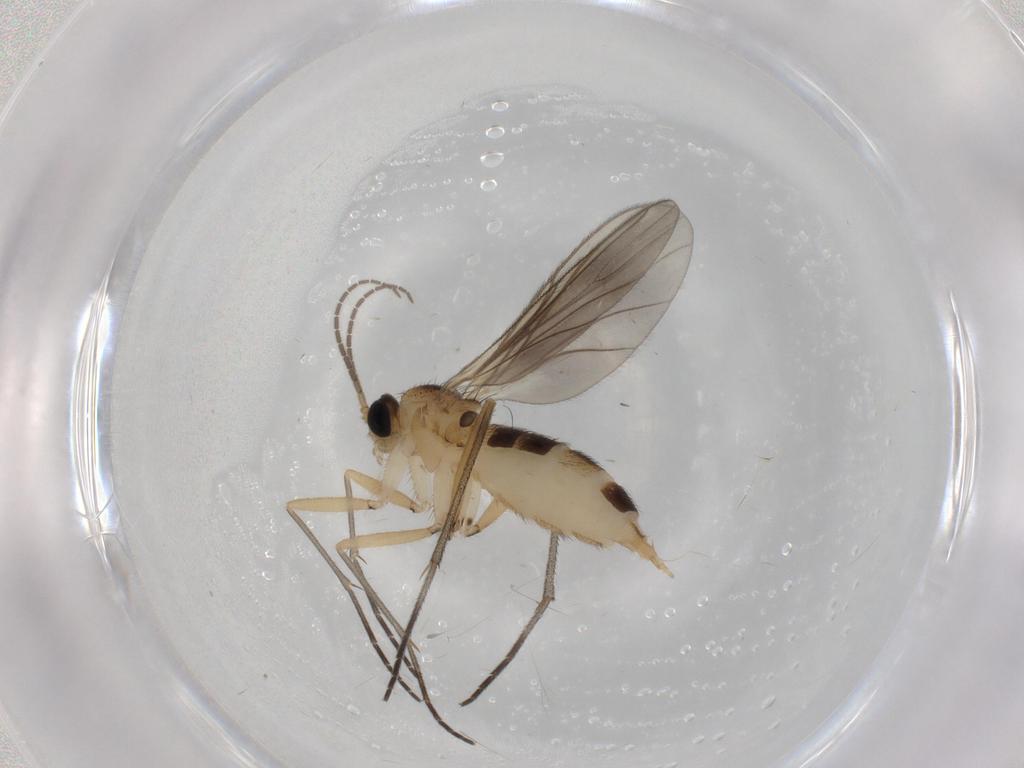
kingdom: Animalia
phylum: Arthropoda
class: Insecta
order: Diptera
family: Sciaridae
